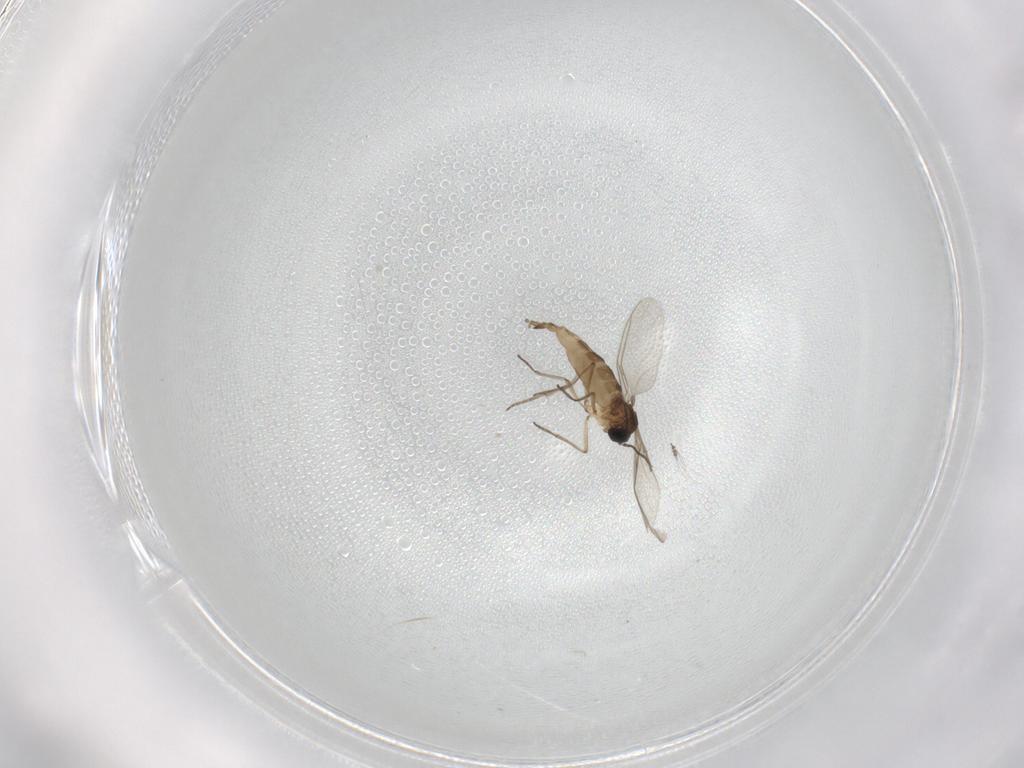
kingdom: Animalia
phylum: Arthropoda
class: Insecta
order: Diptera
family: Ceratopogonidae
